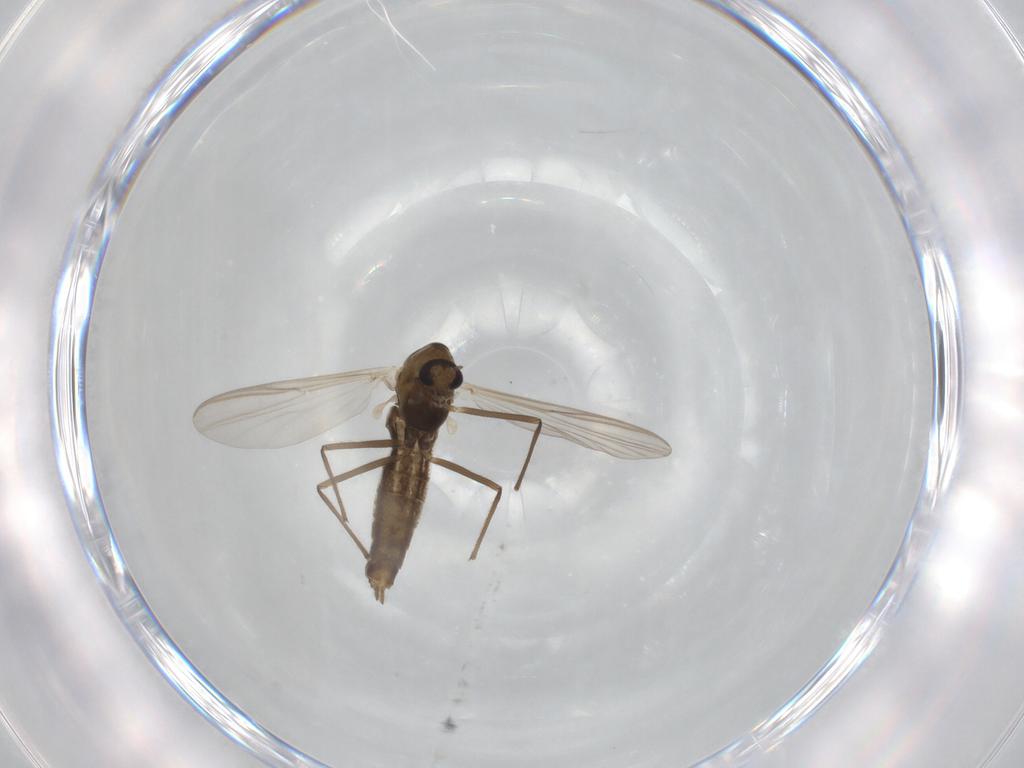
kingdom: Animalia
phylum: Arthropoda
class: Insecta
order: Diptera
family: Chironomidae
